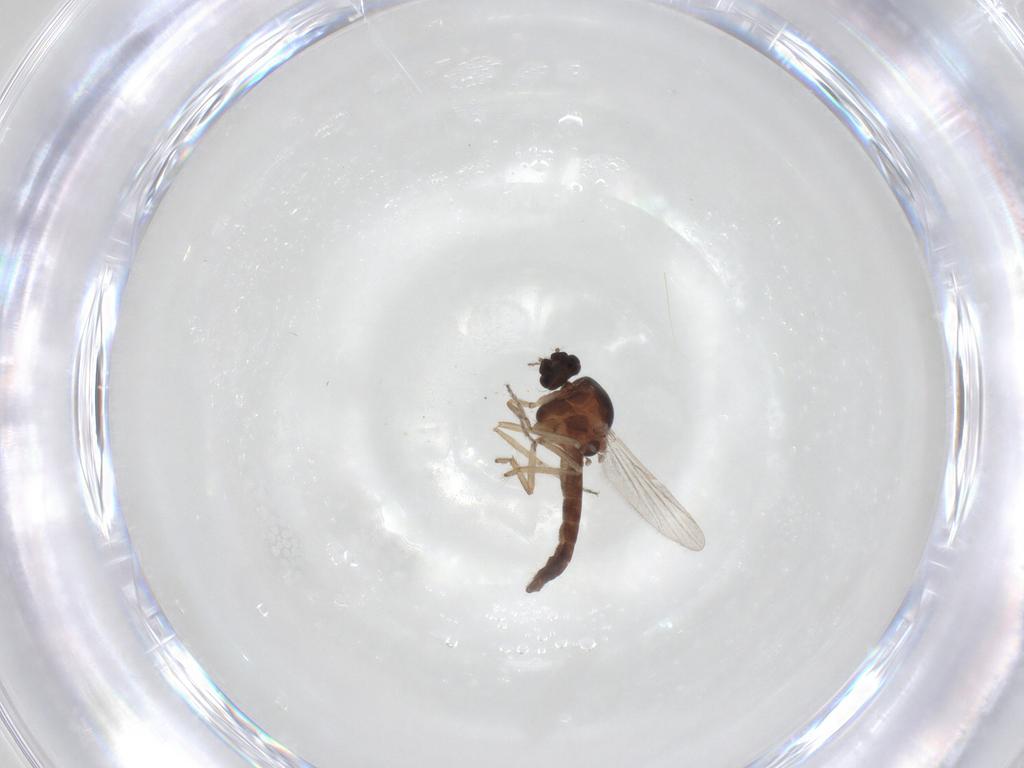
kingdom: Animalia
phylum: Arthropoda
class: Insecta
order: Diptera
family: Ceratopogonidae
